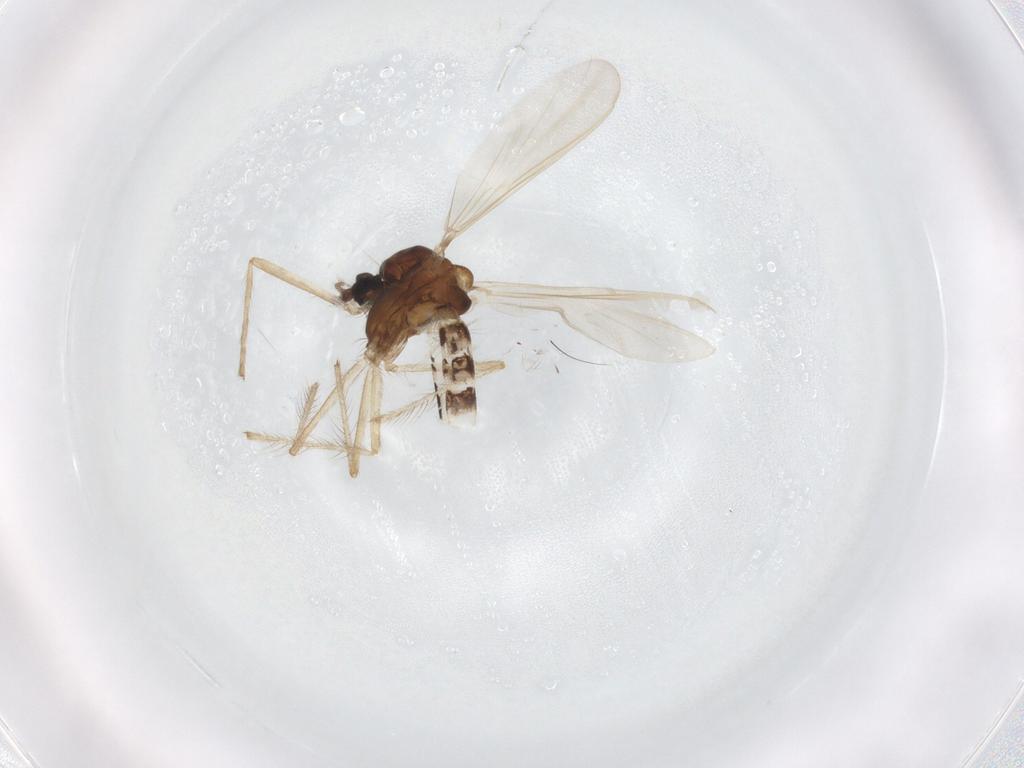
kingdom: Animalia
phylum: Arthropoda
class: Insecta
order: Diptera
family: Chironomidae
